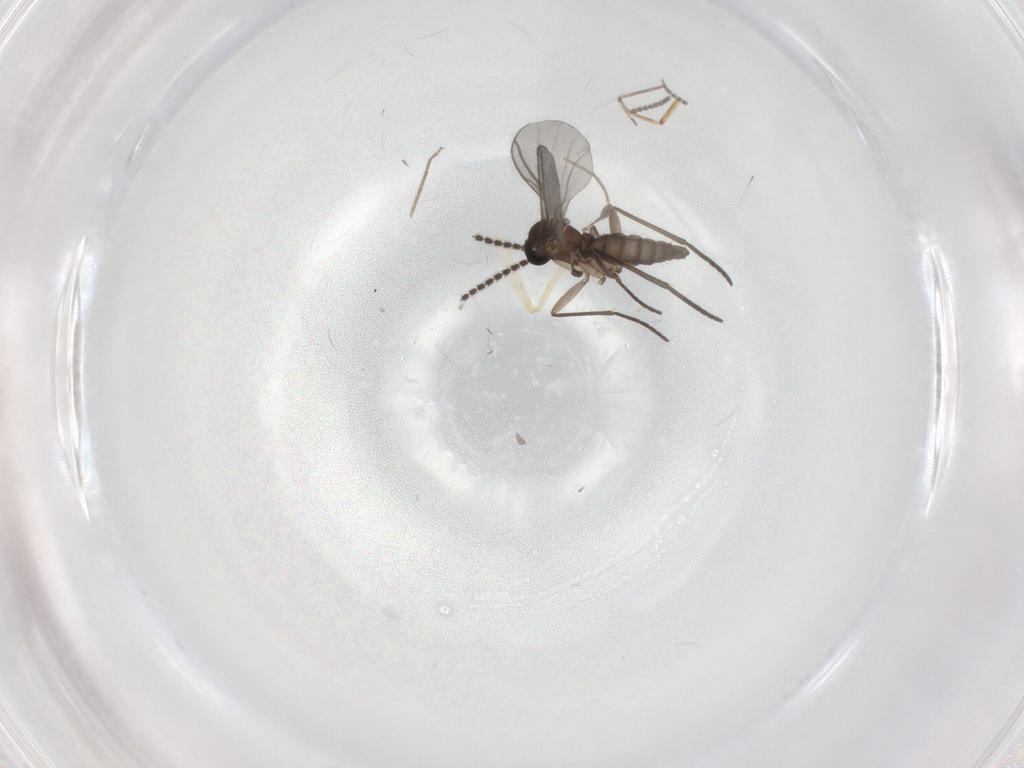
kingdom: Animalia
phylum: Arthropoda
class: Insecta
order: Diptera
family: Sciaridae
